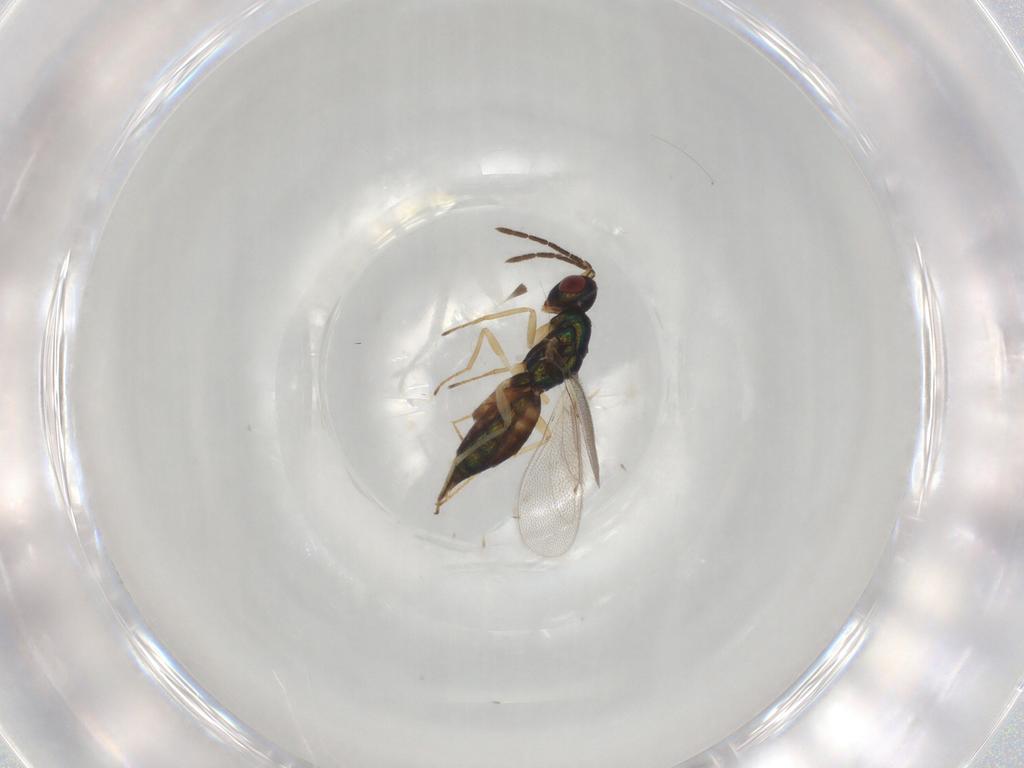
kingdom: Animalia
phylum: Arthropoda
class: Insecta
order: Hymenoptera
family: Eulophidae
